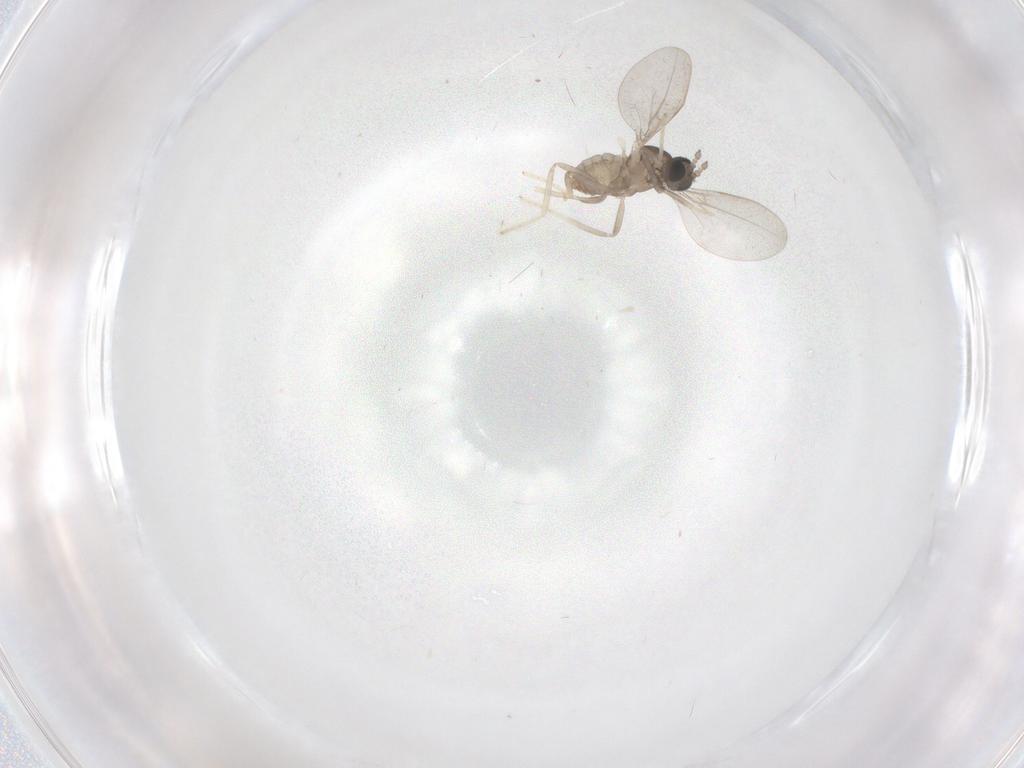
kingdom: Animalia
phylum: Arthropoda
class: Insecta
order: Diptera
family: Cecidomyiidae
